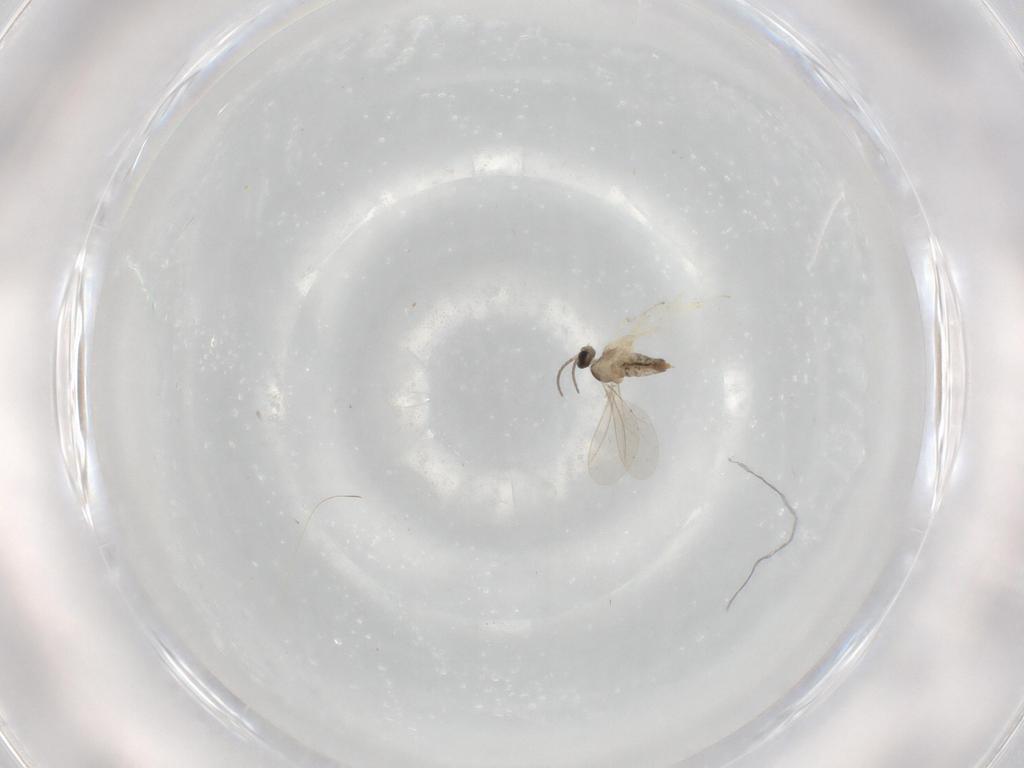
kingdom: Animalia
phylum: Arthropoda
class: Insecta
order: Diptera
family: Cecidomyiidae
